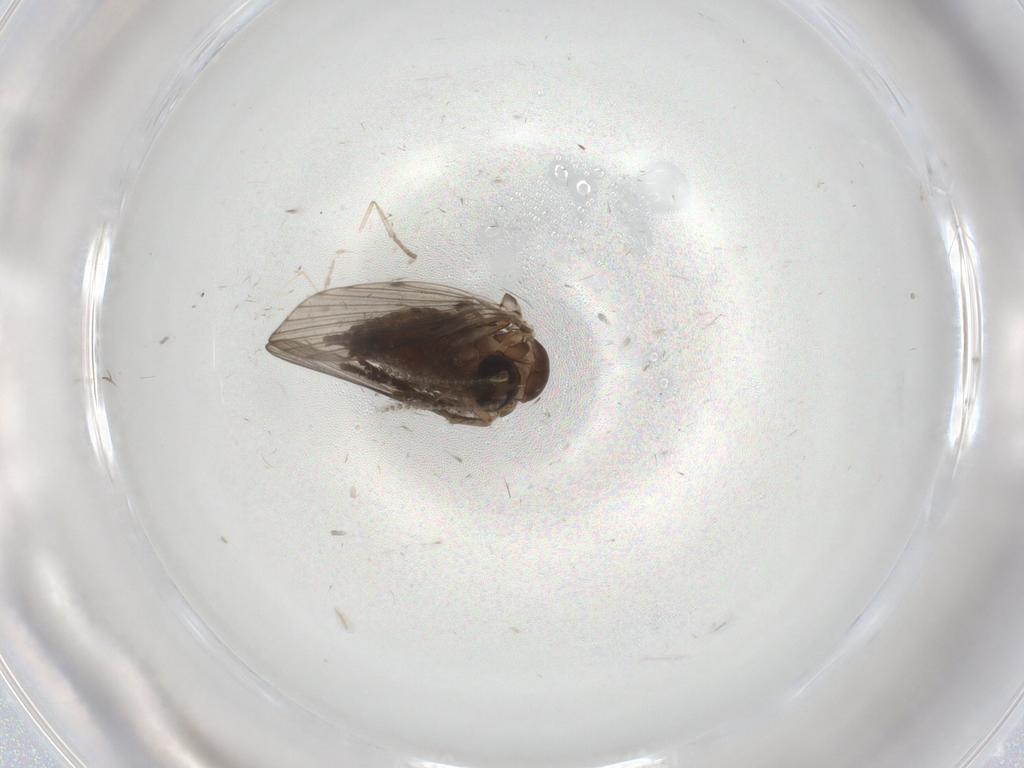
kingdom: Animalia
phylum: Arthropoda
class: Insecta
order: Diptera
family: Psychodidae
